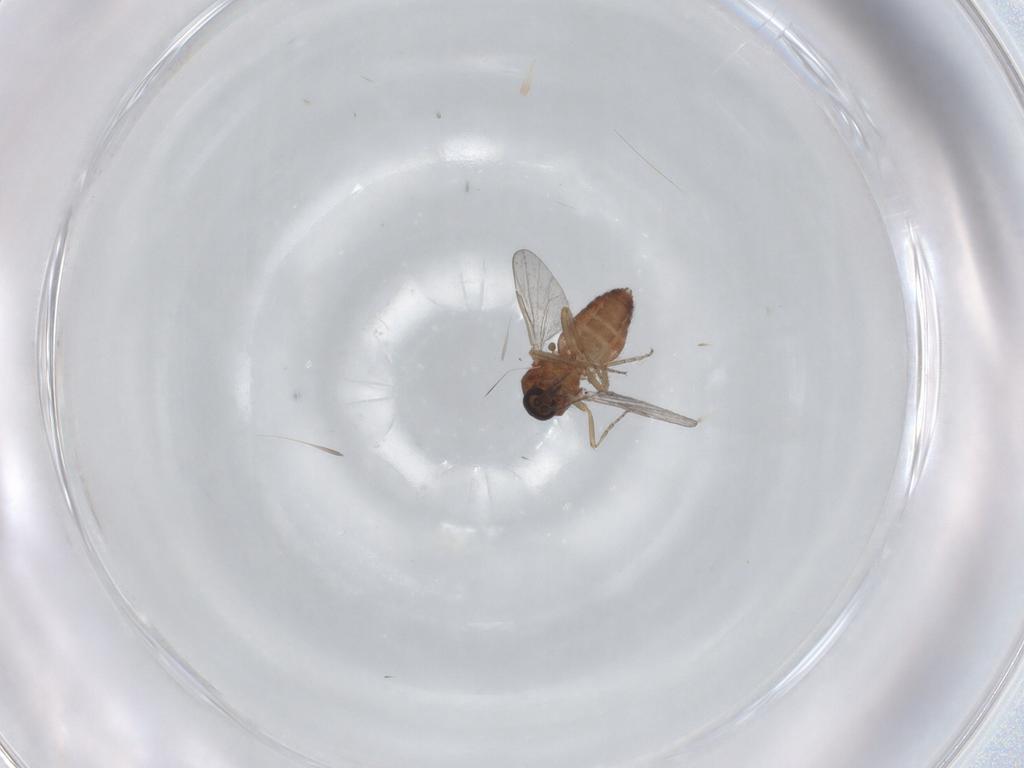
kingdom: Animalia
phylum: Arthropoda
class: Insecta
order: Diptera
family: Ceratopogonidae
